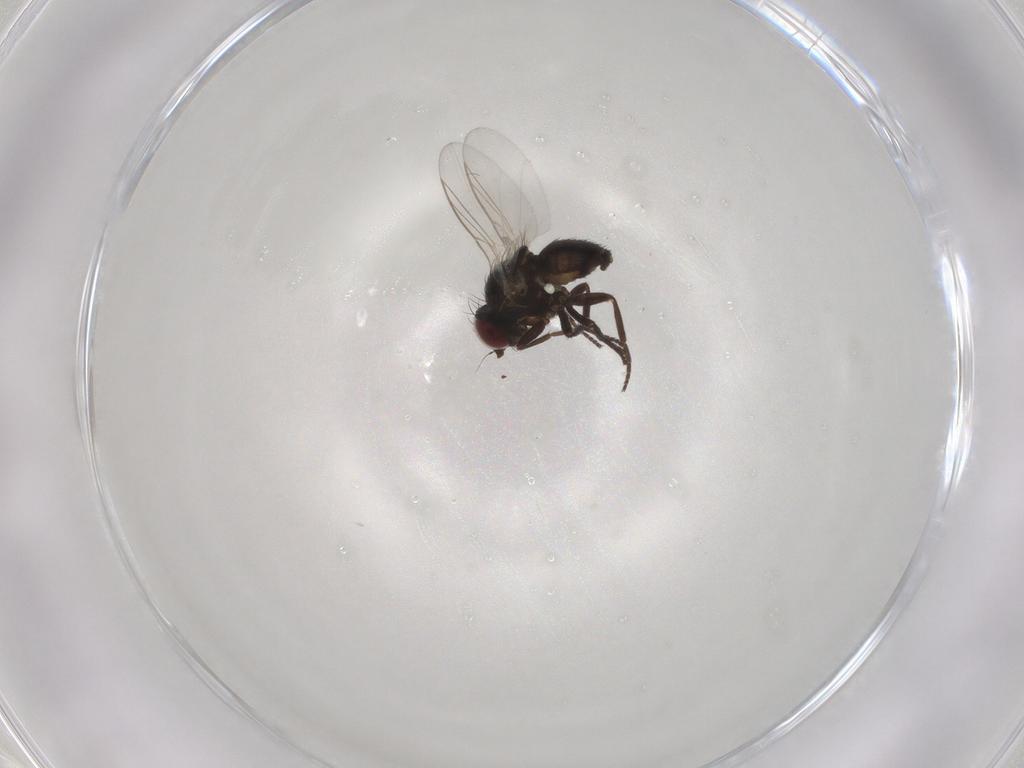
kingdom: Animalia
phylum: Arthropoda
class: Insecta
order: Diptera
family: Agromyzidae
